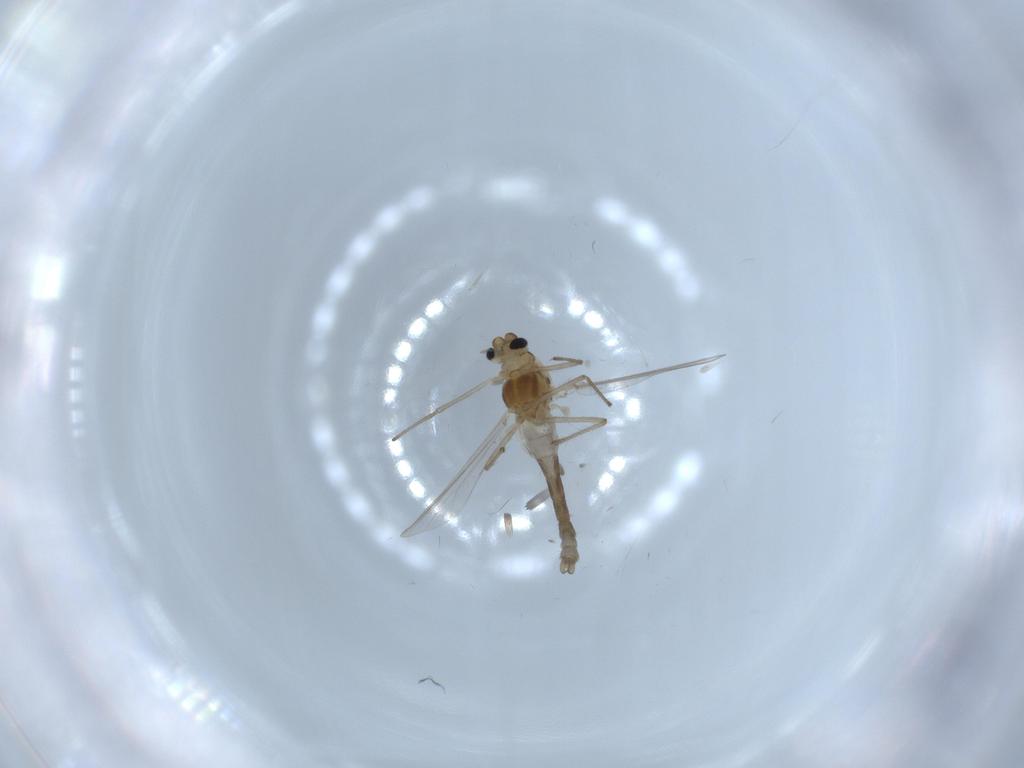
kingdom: Animalia
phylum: Arthropoda
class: Insecta
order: Diptera
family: Chironomidae
